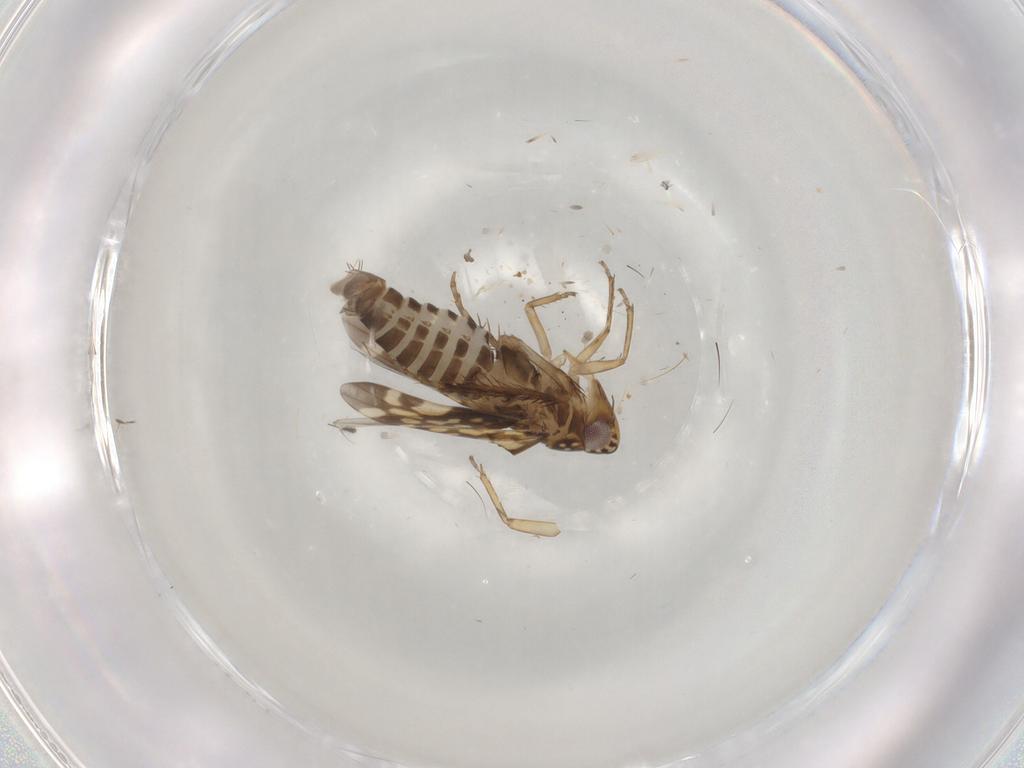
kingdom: Animalia
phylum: Arthropoda
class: Insecta
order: Hemiptera
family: Cicadellidae
